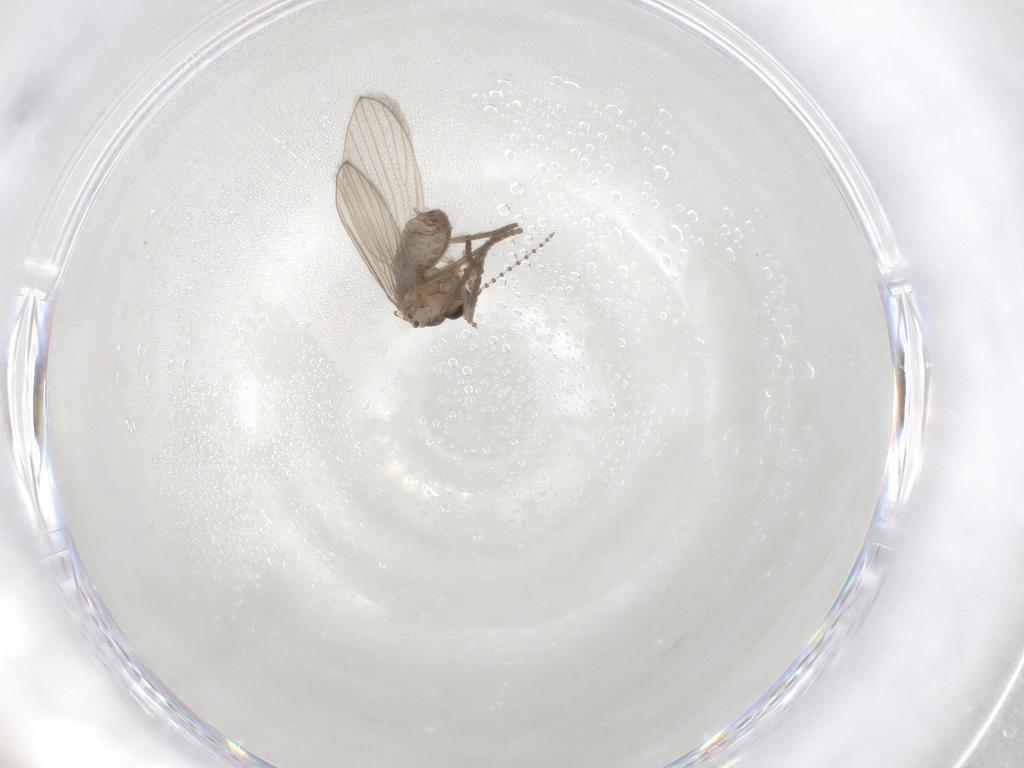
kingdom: Animalia
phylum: Arthropoda
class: Insecta
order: Diptera
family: Psychodidae
